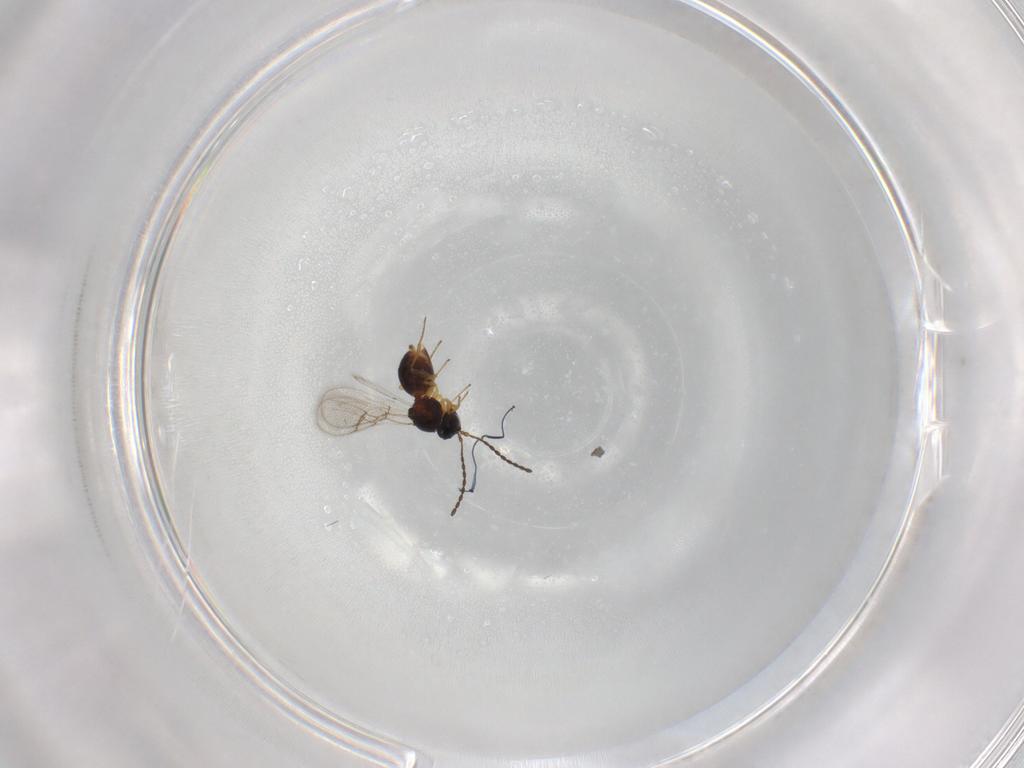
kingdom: Animalia
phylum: Arthropoda
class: Insecta
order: Hymenoptera
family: Figitidae
